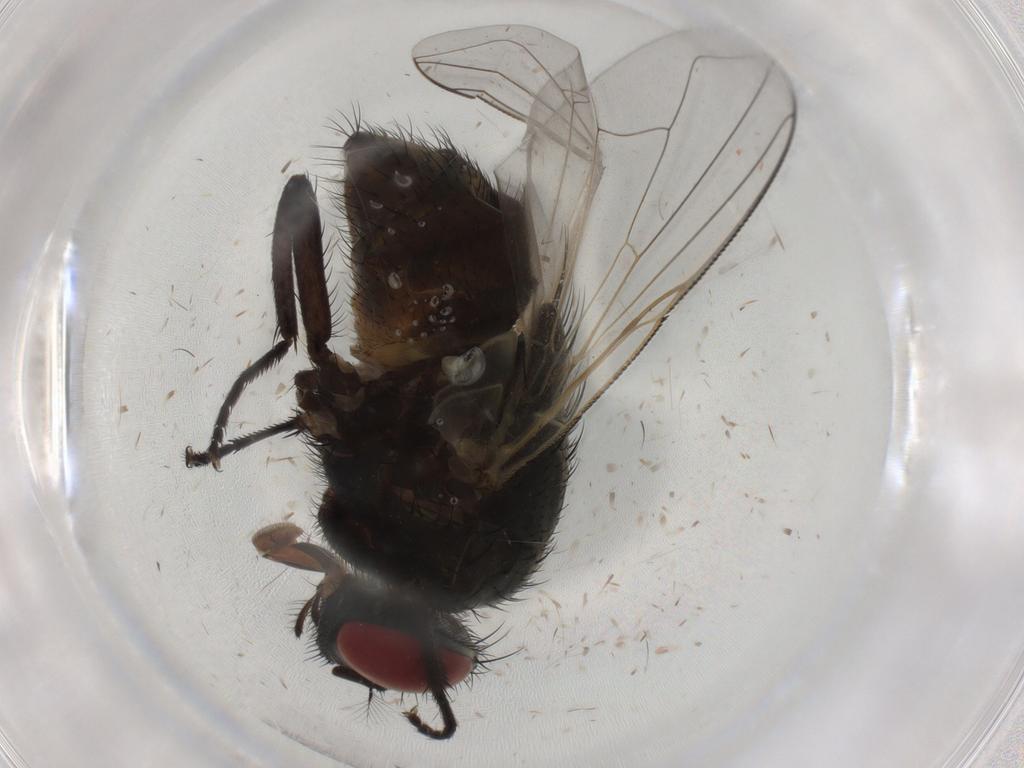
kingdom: Animalia
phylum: Arthropoda
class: Insecta
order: Diptera
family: Muscidae
